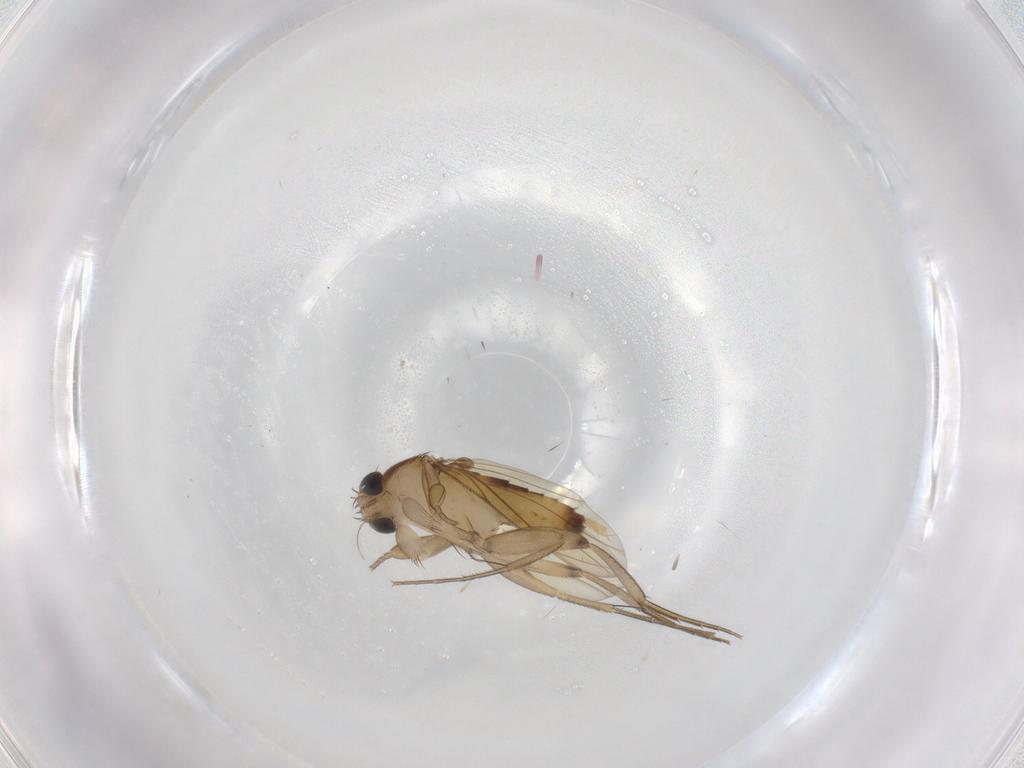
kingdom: Animalia
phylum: Arthropoda
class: Insecta
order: Diptera
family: Phoridae
